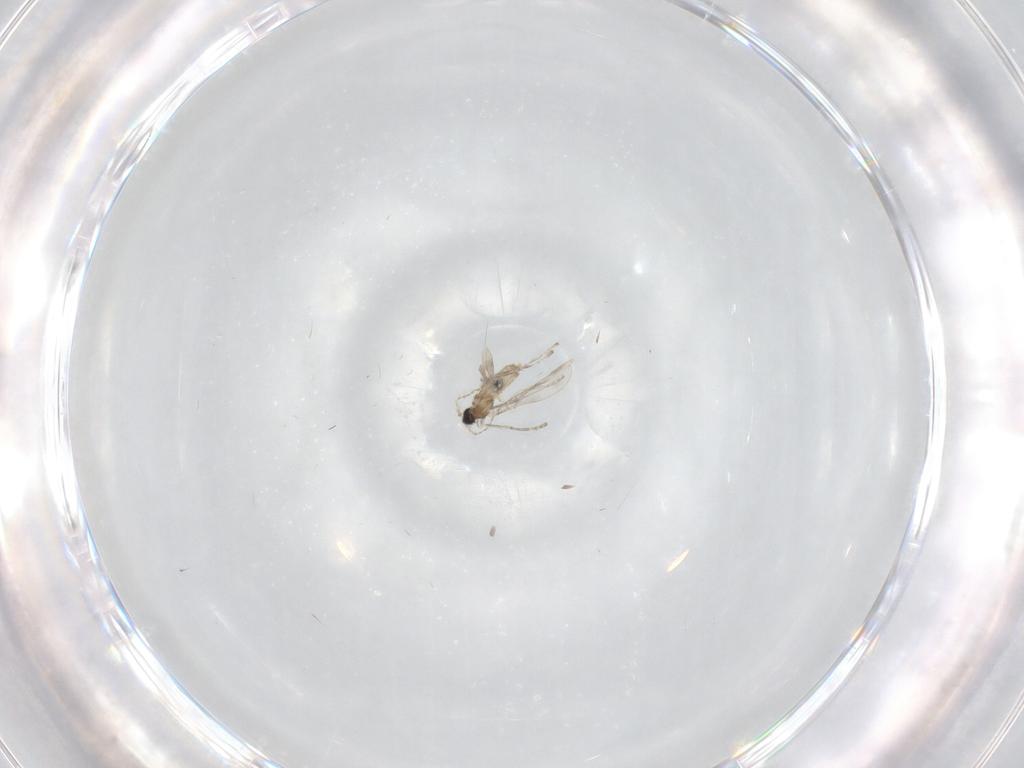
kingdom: Animalia
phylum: Arthropoda
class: Insecta
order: Diptera
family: Cecidomyiidae
